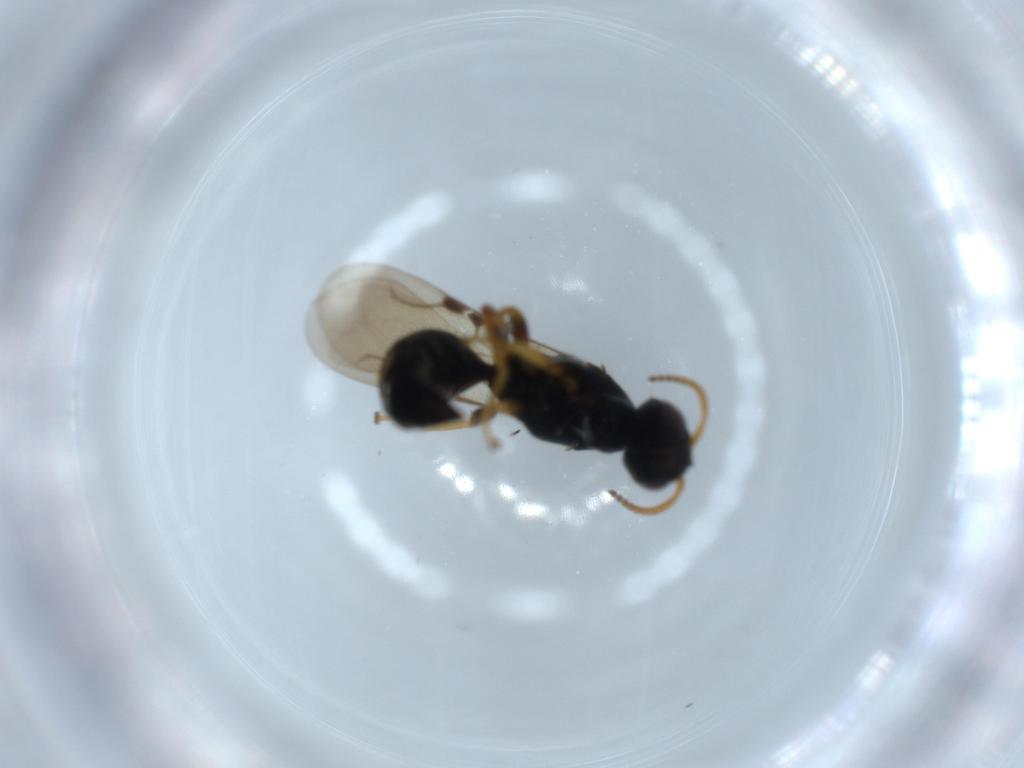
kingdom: Animalia
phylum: Arthropoda
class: Insecta
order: Hymenoptera
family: Bethylidae
